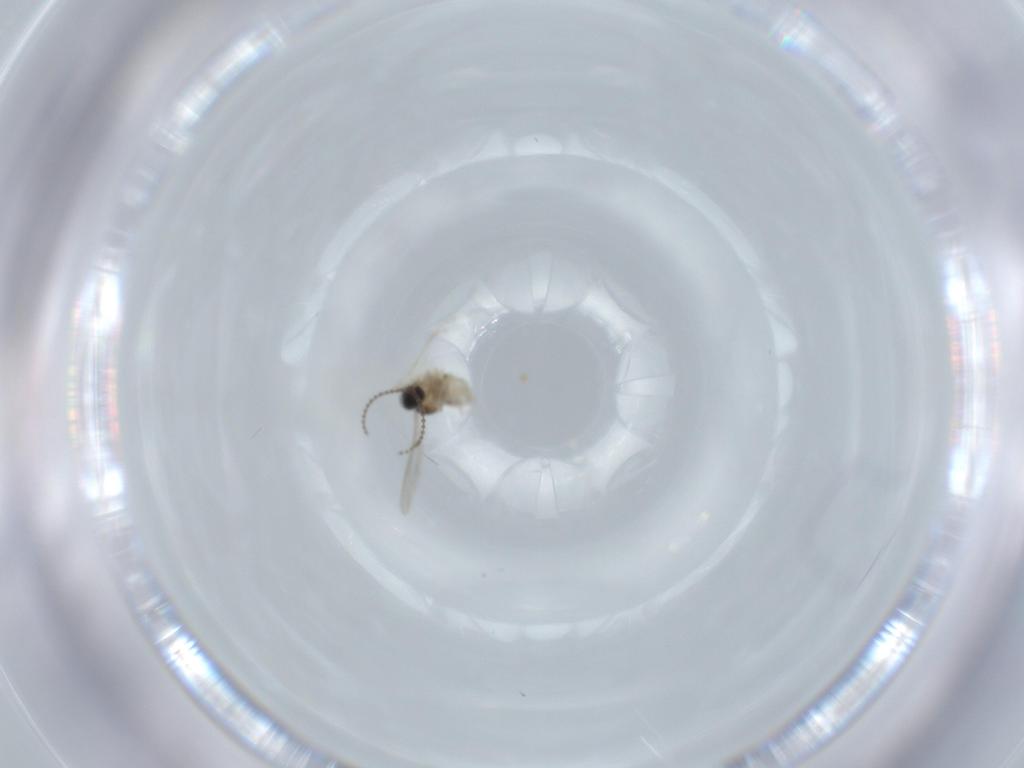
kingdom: Animalia
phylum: Arthropoda
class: Insecta
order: Diptera
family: Cecidomyiidae
